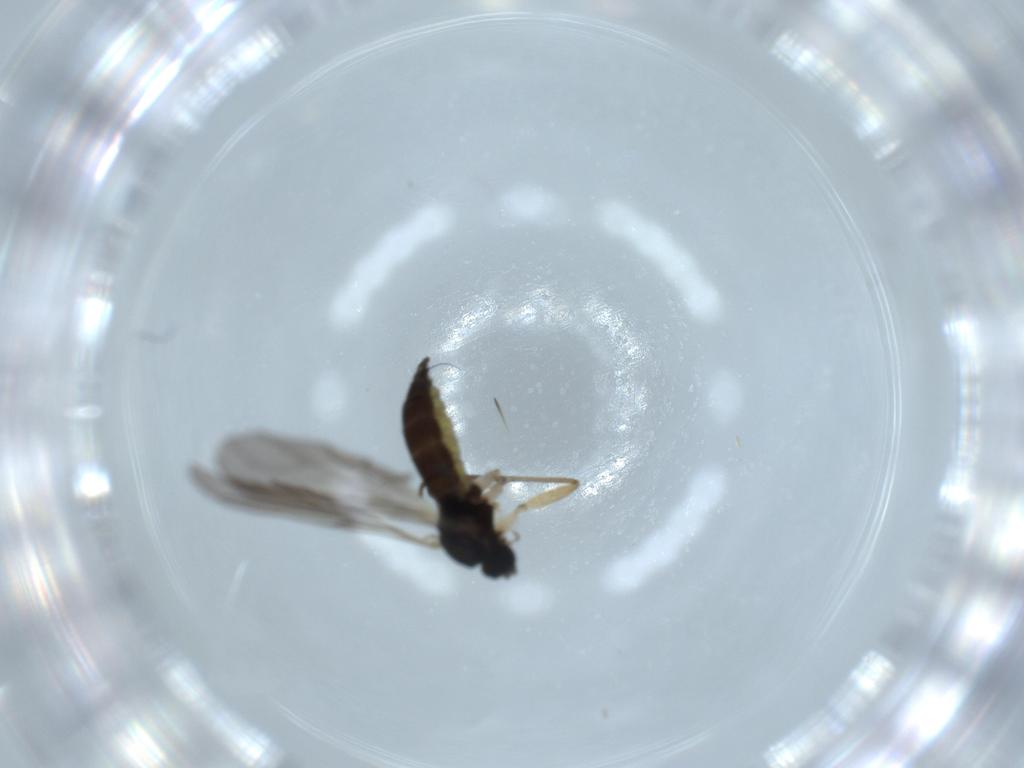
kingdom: Animalia
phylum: Arthropoda
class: Insecta
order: Diptera
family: Sciaridae
